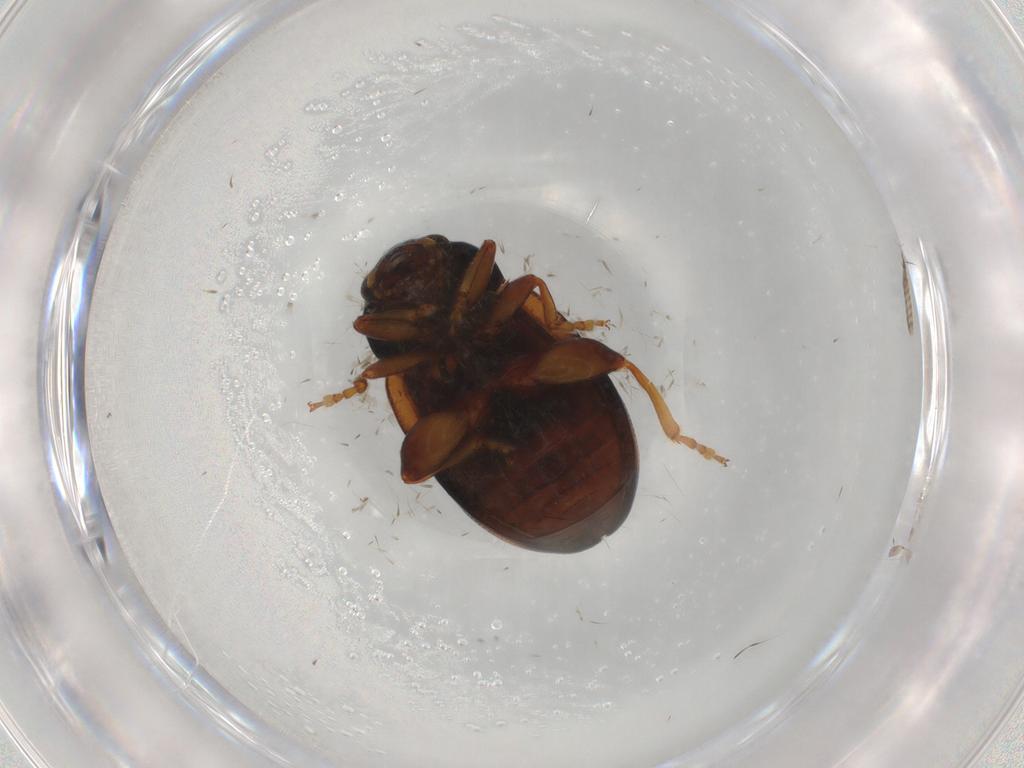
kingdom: Animalia
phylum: Arthropoda
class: Insecta
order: Coleoptera
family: Chrysomelidae
